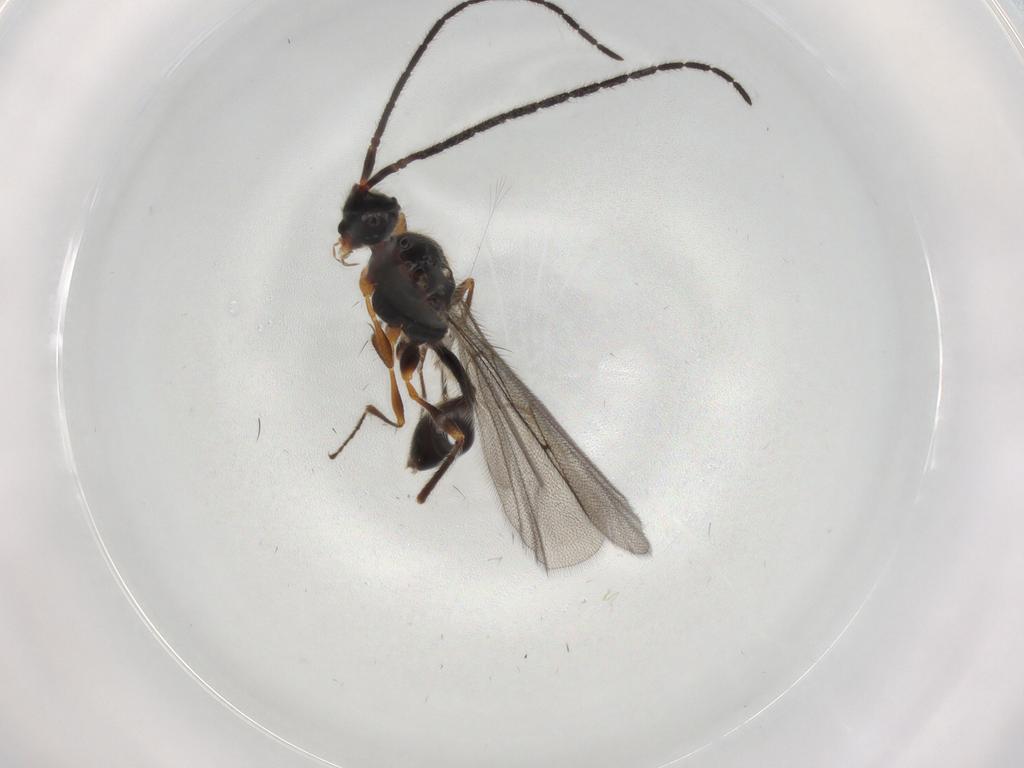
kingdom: Animalia
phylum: Arthropoda
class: Insecta
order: Hymenoptera
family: Diapriidae
